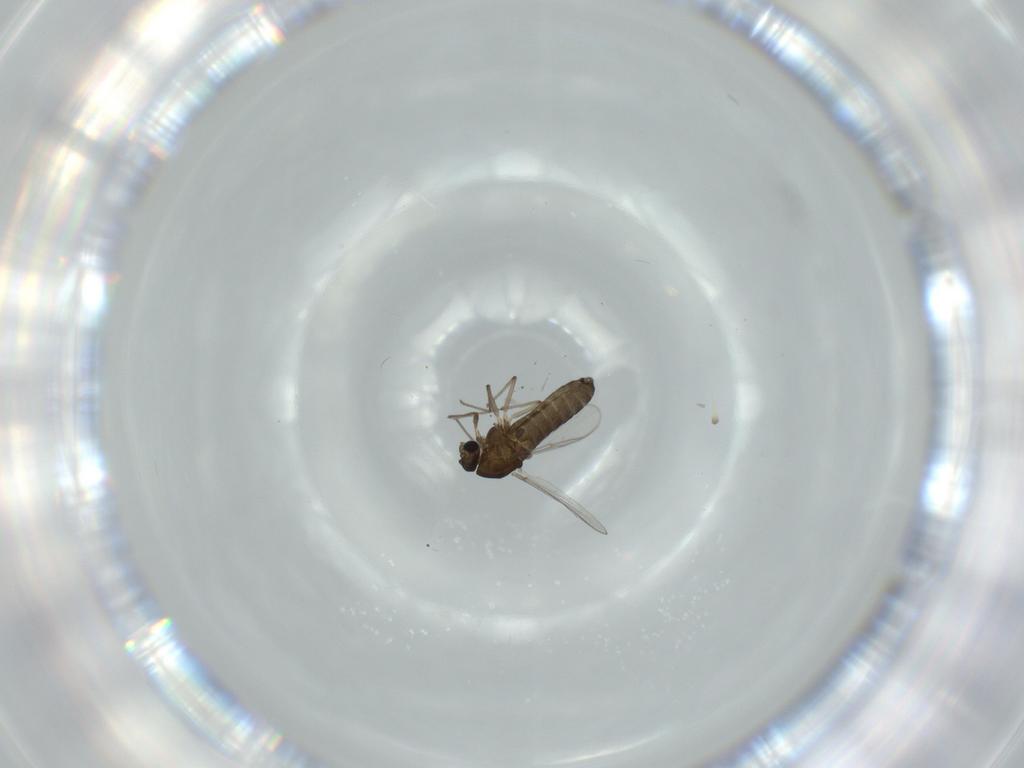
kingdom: Animalia
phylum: Arthropoda
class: Insecta
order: Diptera
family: Chironomidae
